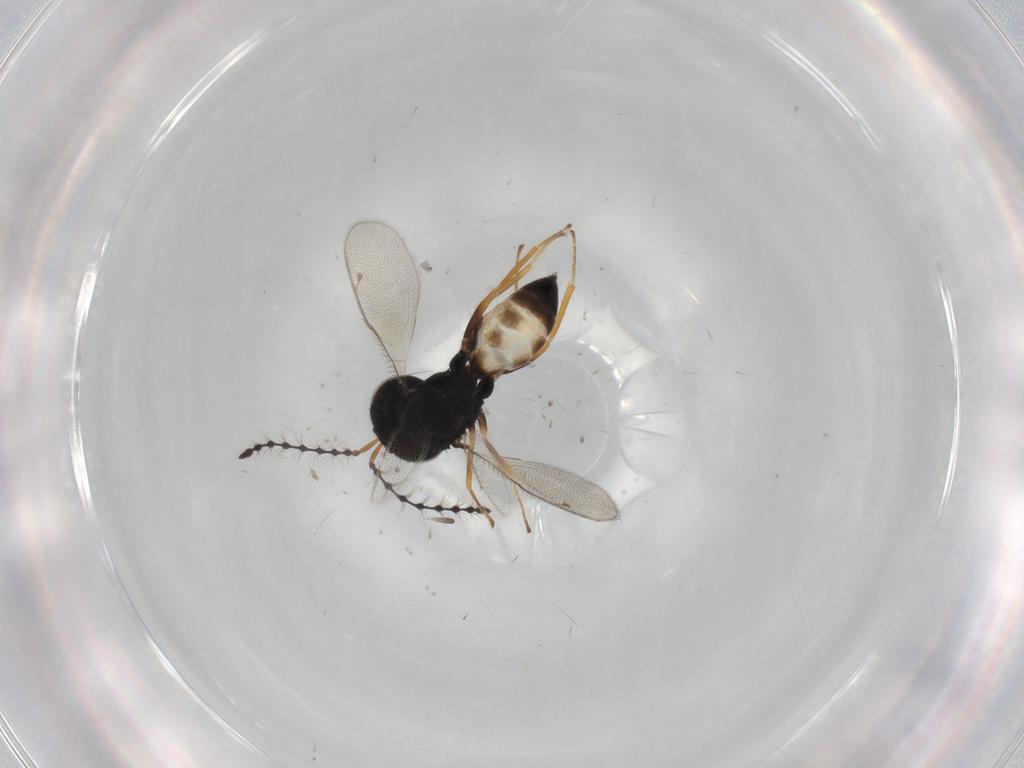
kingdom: Animalia
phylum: Arthropoda
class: Insecta
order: Hymenoptera
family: Pteromalidae
